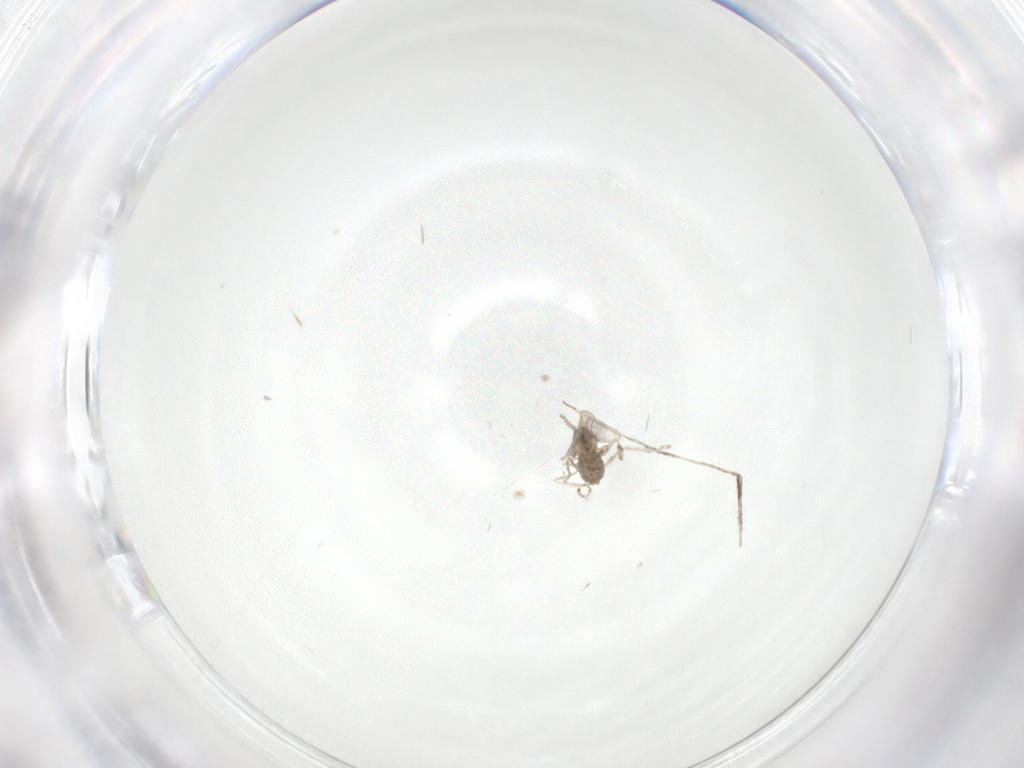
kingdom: Animalia
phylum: Arthropoda
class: Insecta
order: Diptera
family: Cecidomyiidae
